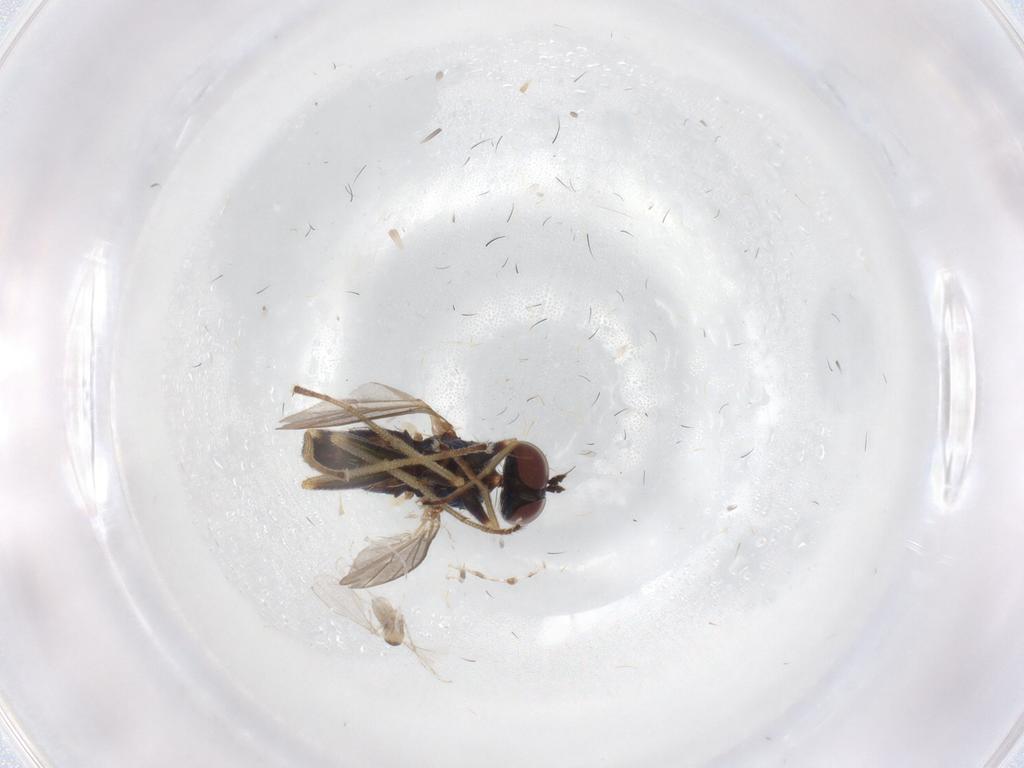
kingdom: Animalia
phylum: Arthropoda
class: Insecta
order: Diptera
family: Dolichopodidae
